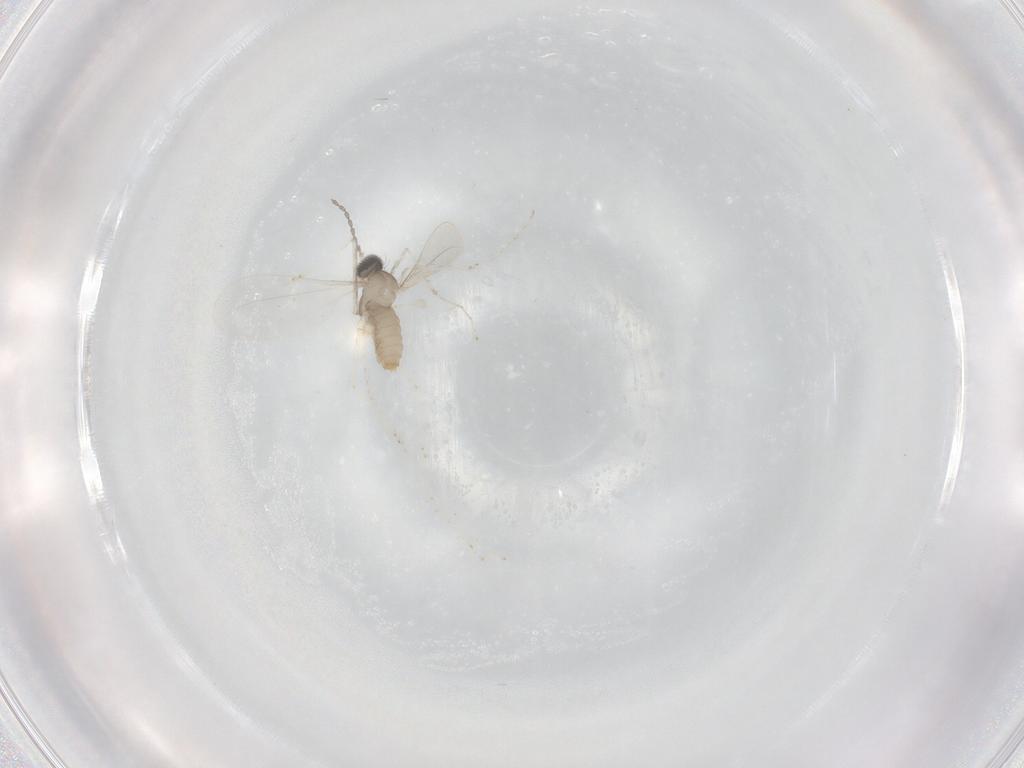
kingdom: Animalia
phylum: Arthropoda
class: Insecta
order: Diptera
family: Cecidomyiidae
